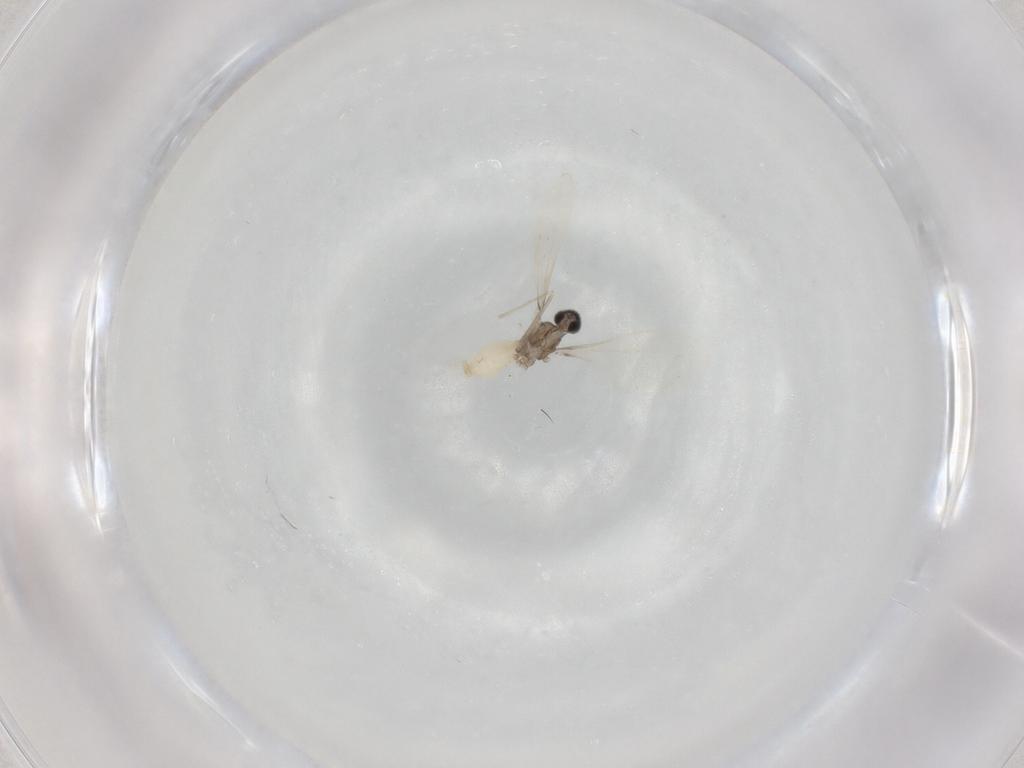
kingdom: Animalia
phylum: Arthropoda
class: Insecta
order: Diptera
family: Cecidomyiidae
